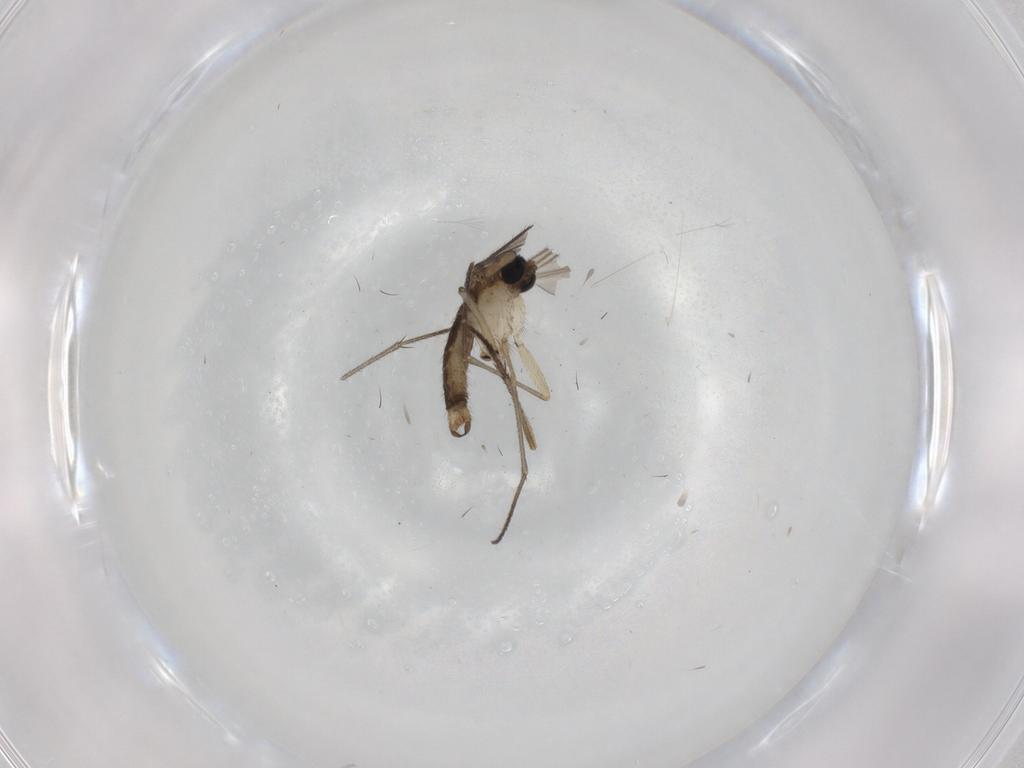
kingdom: Animalia
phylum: Arthropoda
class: Insecta
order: Diptera
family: Sciaridae
